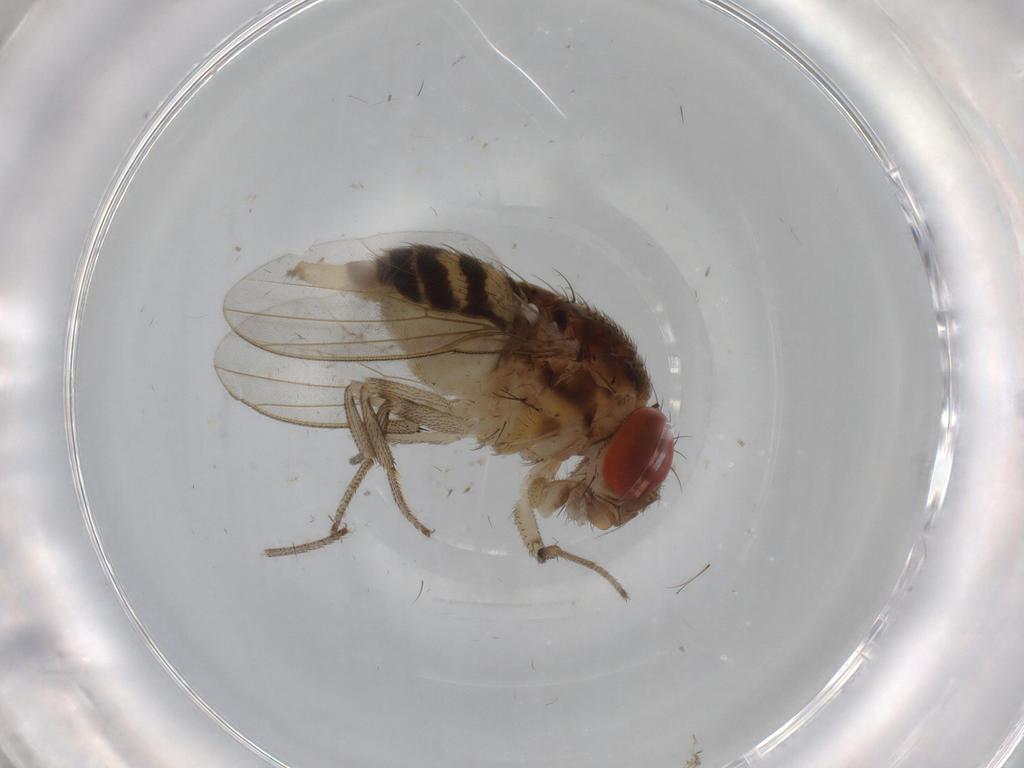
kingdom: Animalia
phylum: Arthropoda
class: Insecta
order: Diptera
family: Drosophilidae
